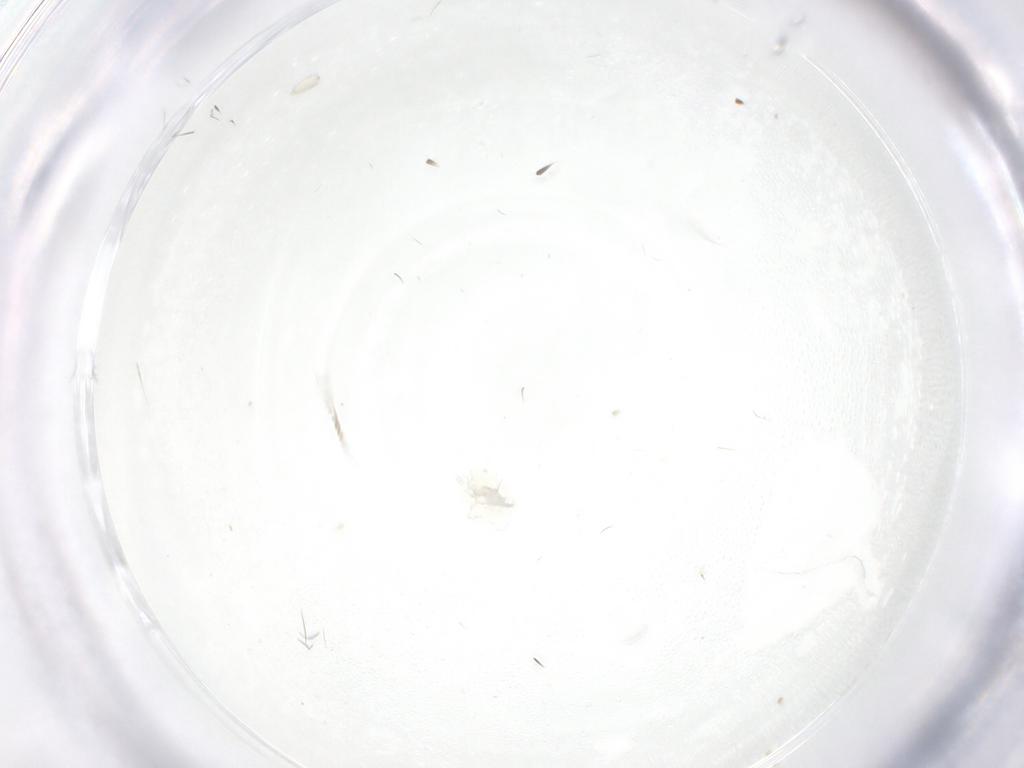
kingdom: Animalia
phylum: Arthropoda
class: Insecta
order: Diptera
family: Phoridae
